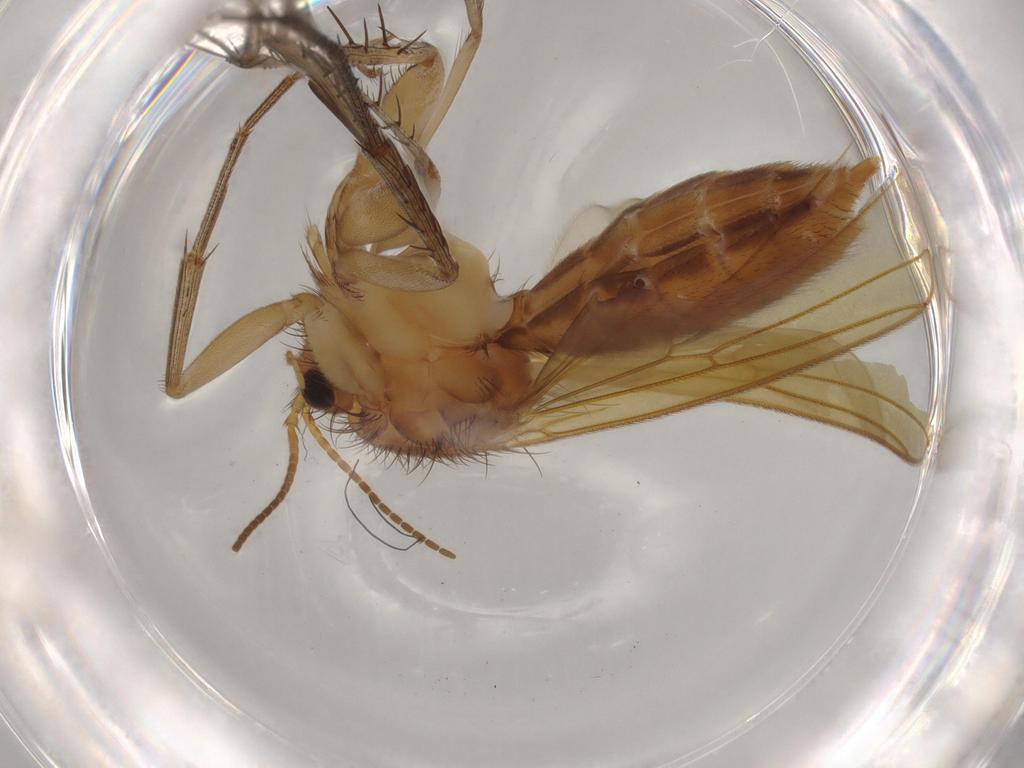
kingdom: Animalia
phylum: Arthropoda
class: Insecta
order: Diptera
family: Mycetophilidae
